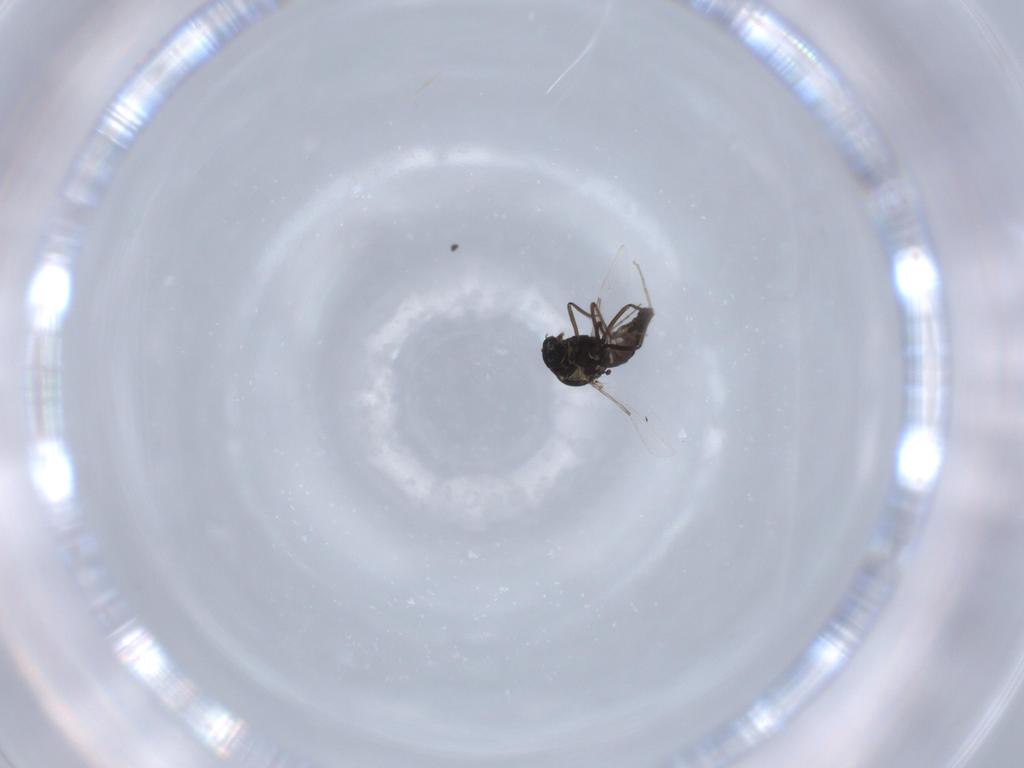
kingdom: Animalia
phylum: Arthropoda
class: Insecta
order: Diptera
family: Ceratopogonidae
